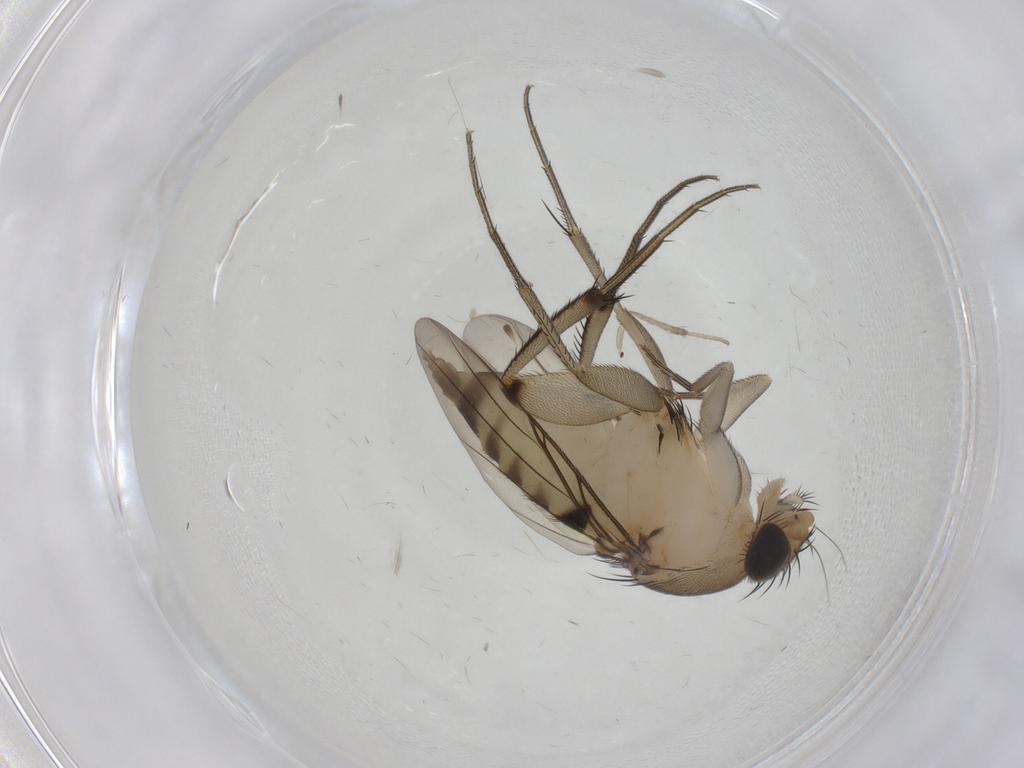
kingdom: Animalia
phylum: Arthropoda
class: Insecta
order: Diptera
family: Phoridae
